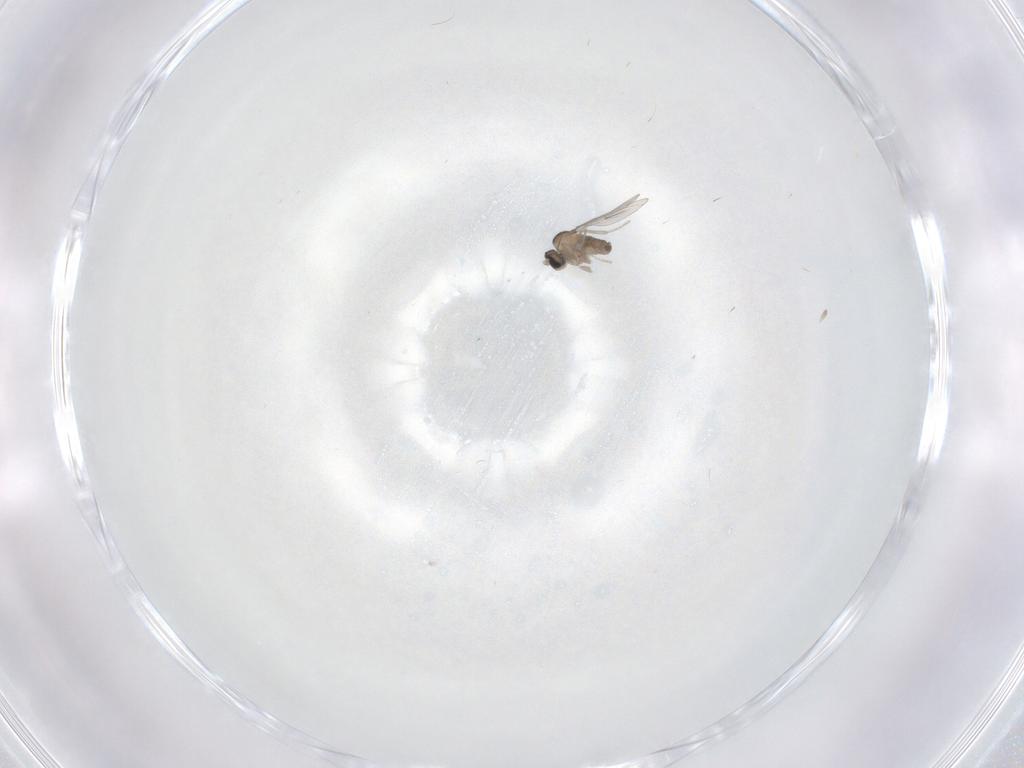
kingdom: Animalia
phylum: Arthropoda
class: Insecta
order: Diptera
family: Cecidomyiidae
